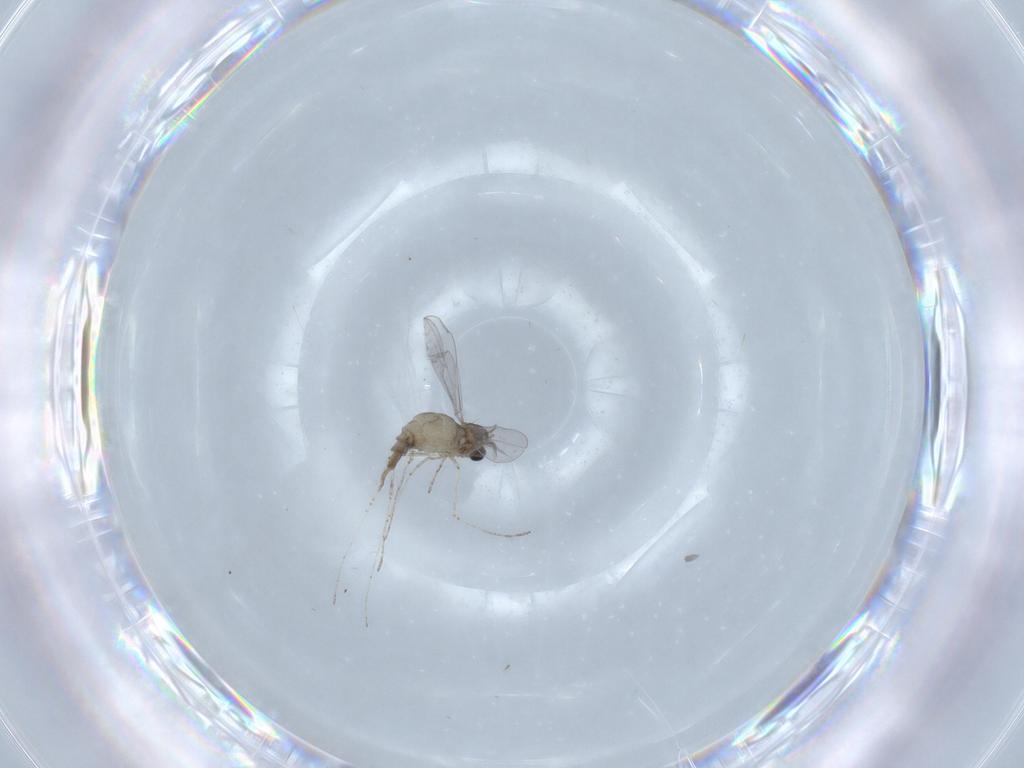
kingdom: Animalia
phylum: Arthropoda
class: Insecta
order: Diptera
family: Cecidomyiidae
